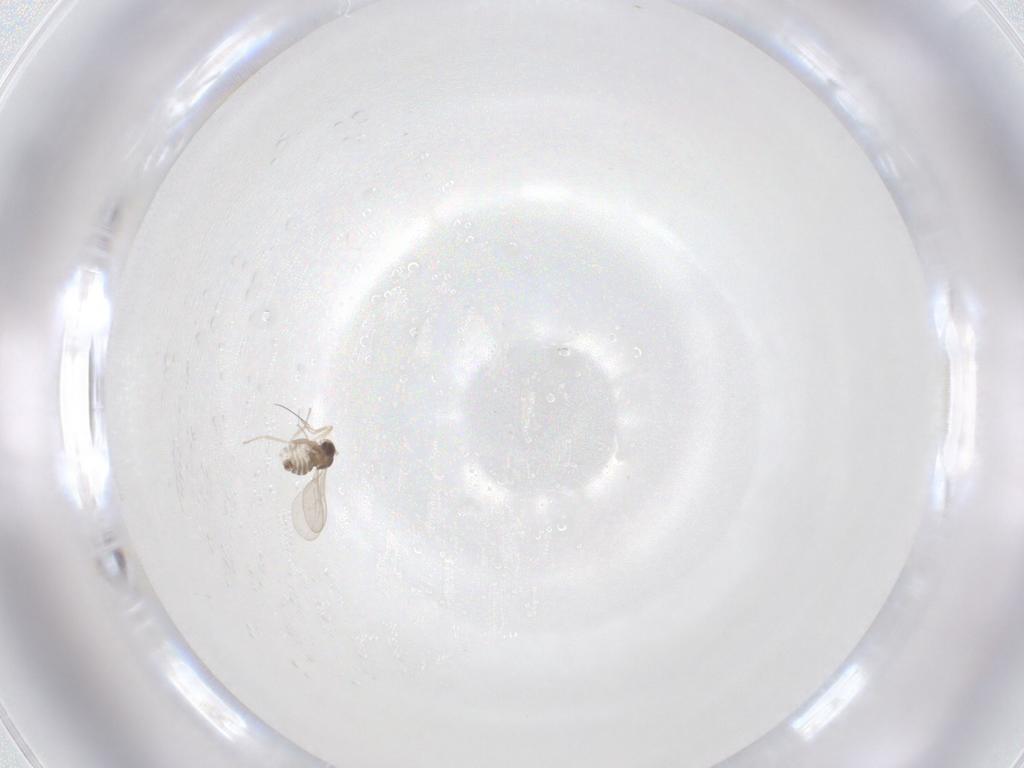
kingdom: Animalia
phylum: Arthropoda
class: Insecta
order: Diptera
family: Cecidomyiidae
